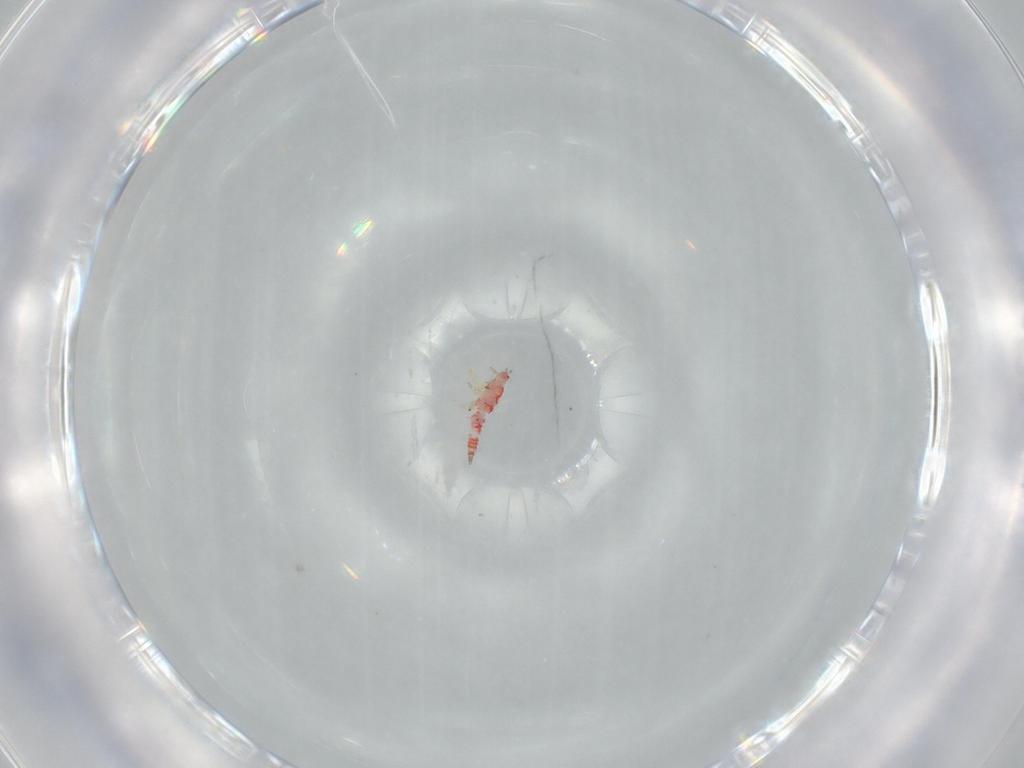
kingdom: Animalia
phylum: Arthropoda
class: Insecta
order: Thysanoptera
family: Phlaeothripidae
